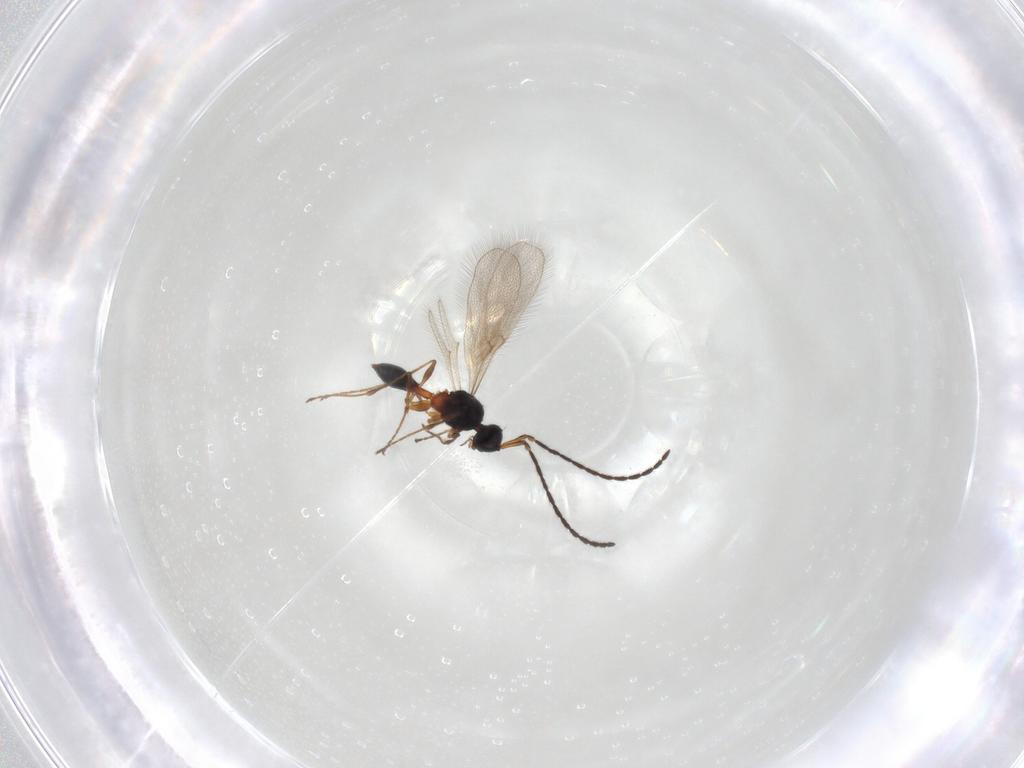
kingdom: Animalia
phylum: Arthropoda
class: Insecta
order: Hymenoptera
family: Diapriidae
